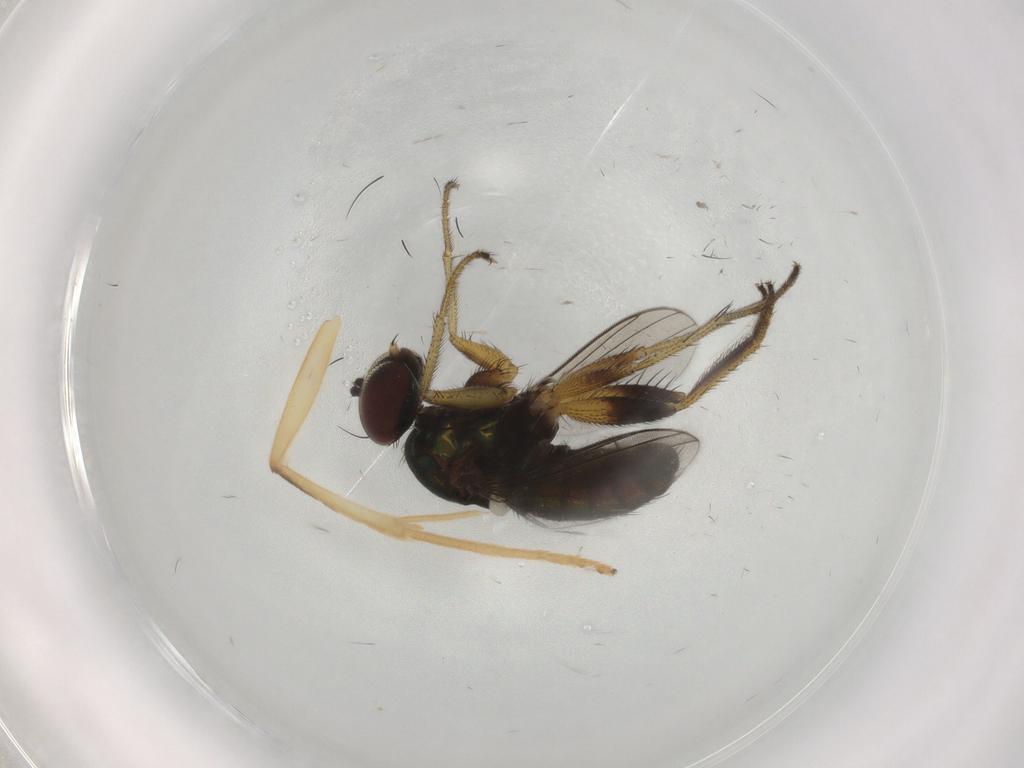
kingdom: Animalia
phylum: Arthropoda
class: Insecta
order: Diptera
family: Dolichopodidae
